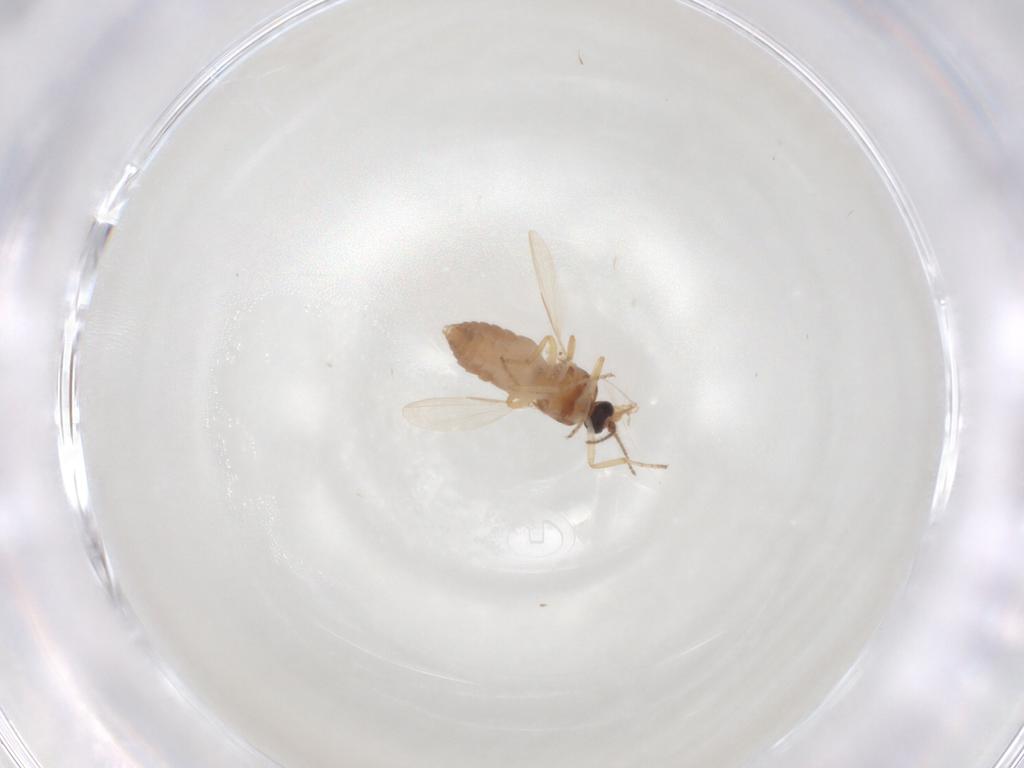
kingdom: Animalia
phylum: Arthropoda
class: Insecta
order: Diptera
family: Ceratopogonidae
